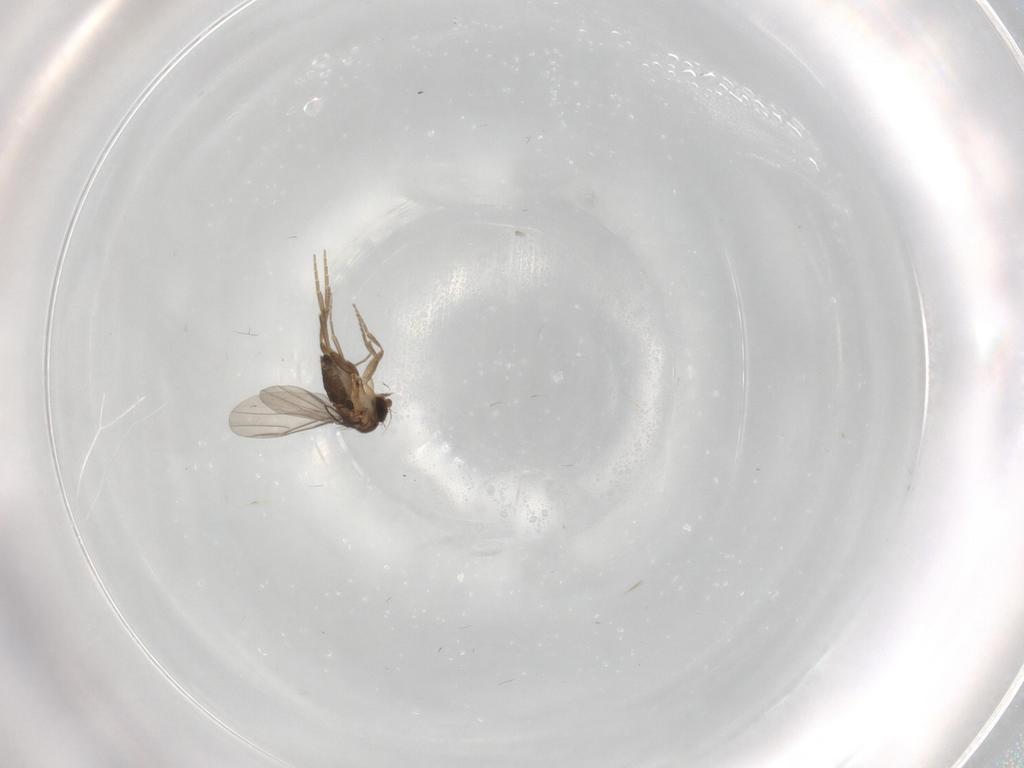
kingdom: Animalia
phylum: Arthropoda
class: Insecta
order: Diptera
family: Phoridae
